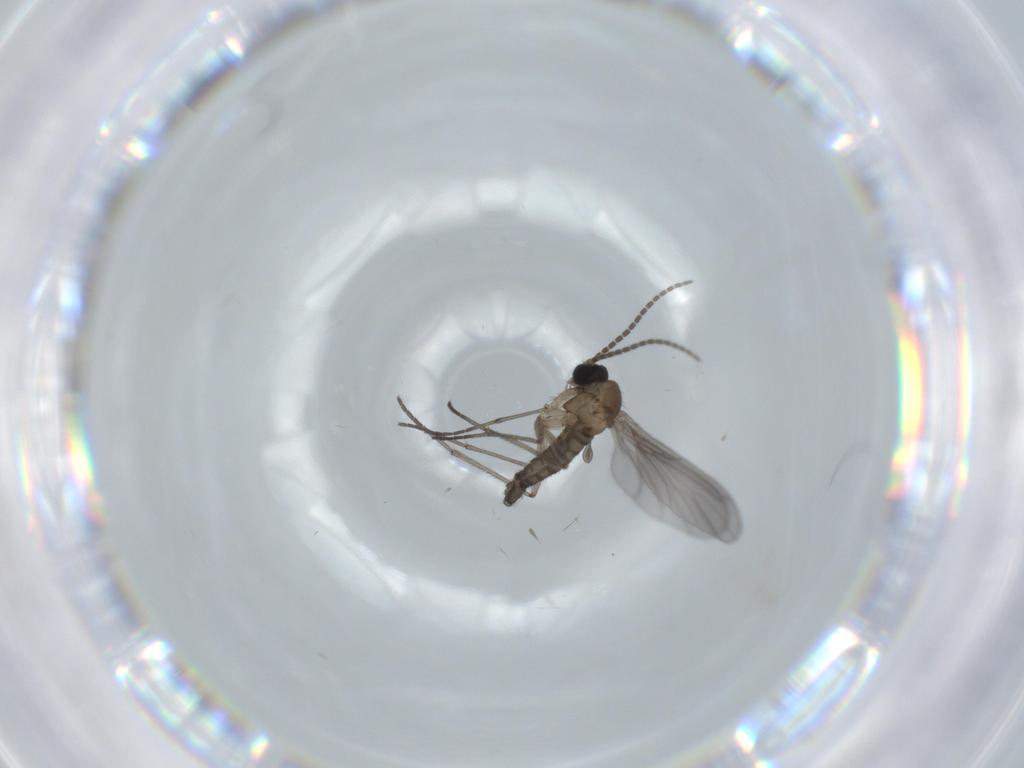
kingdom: Animalia
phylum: Arthropoda
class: Insecta
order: Diptera
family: Sciaridae
